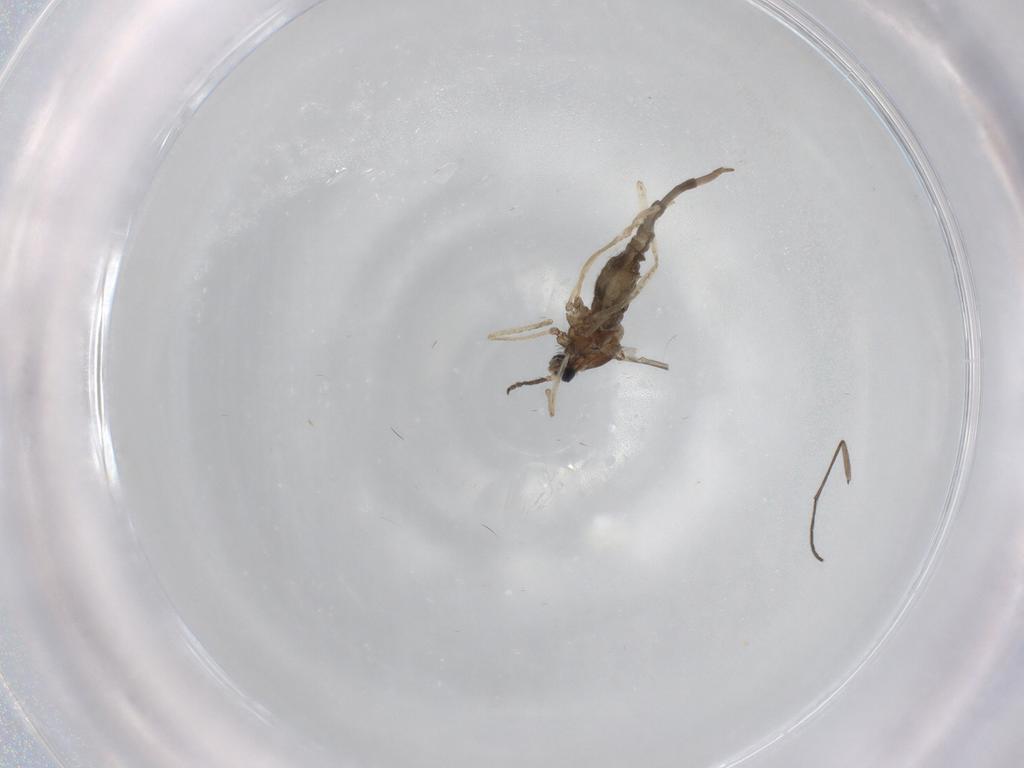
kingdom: Animalia
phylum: Arthropoda
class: Insecta
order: Diptera
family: Cecidomyiidae
